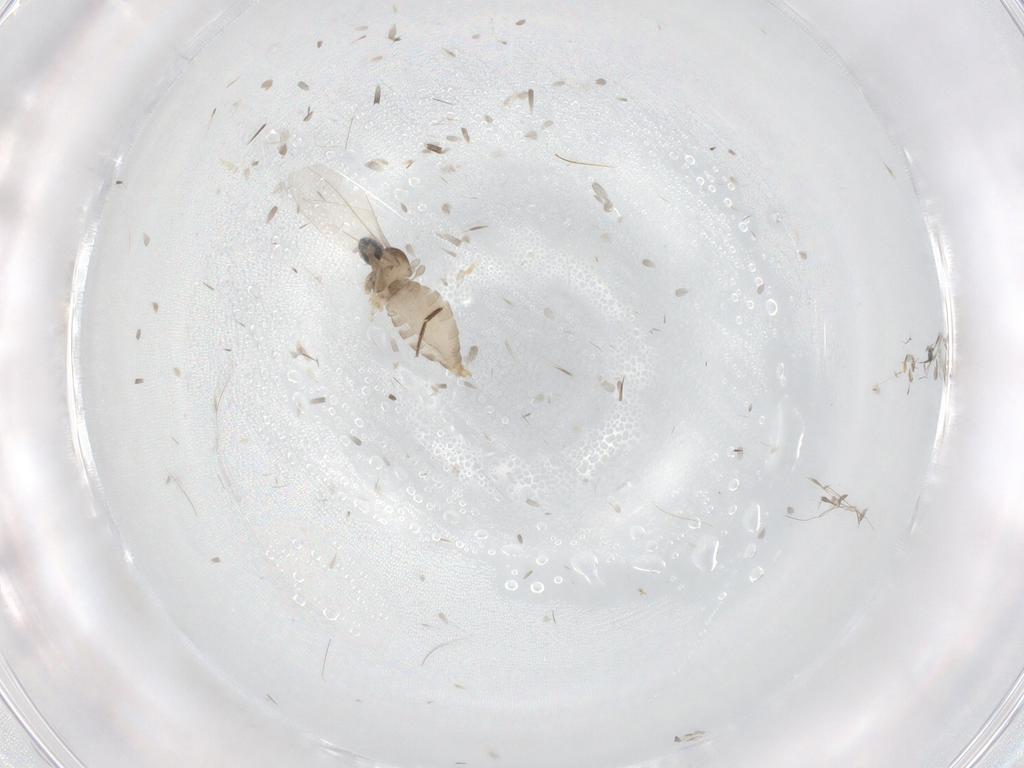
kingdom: Animalia
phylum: Arthropoda
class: Insecta
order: Diptera
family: Phoridae
